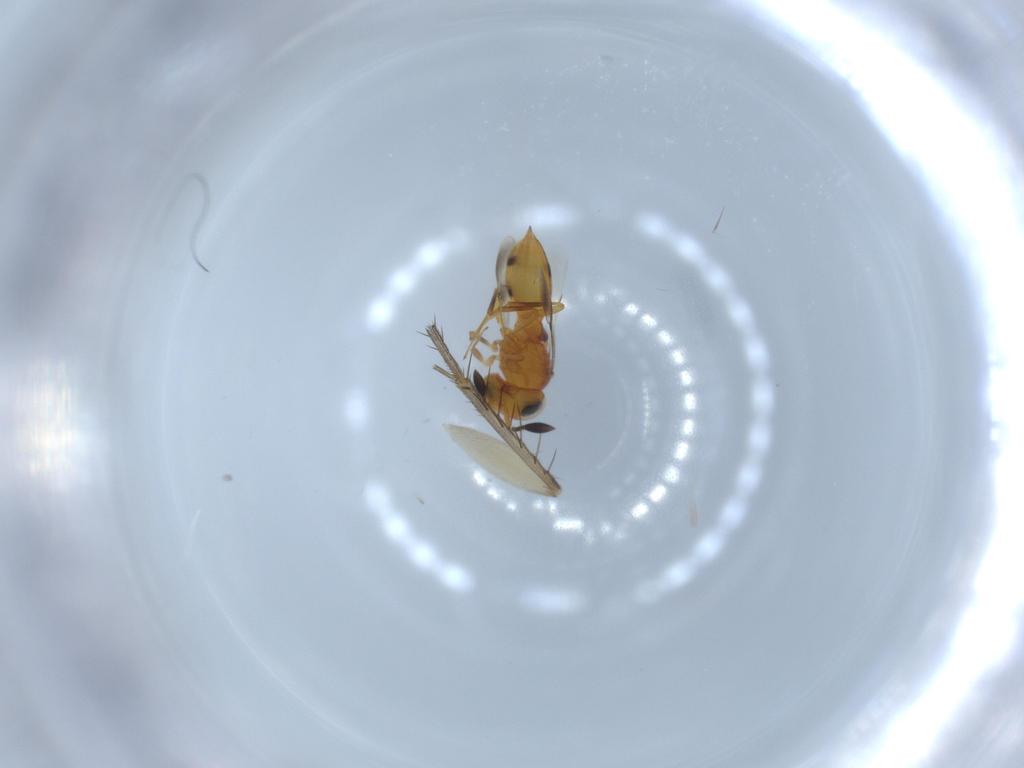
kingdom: Animalia
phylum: Arthropoda
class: Insecta
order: Hymenoptera
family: Scelionidae
